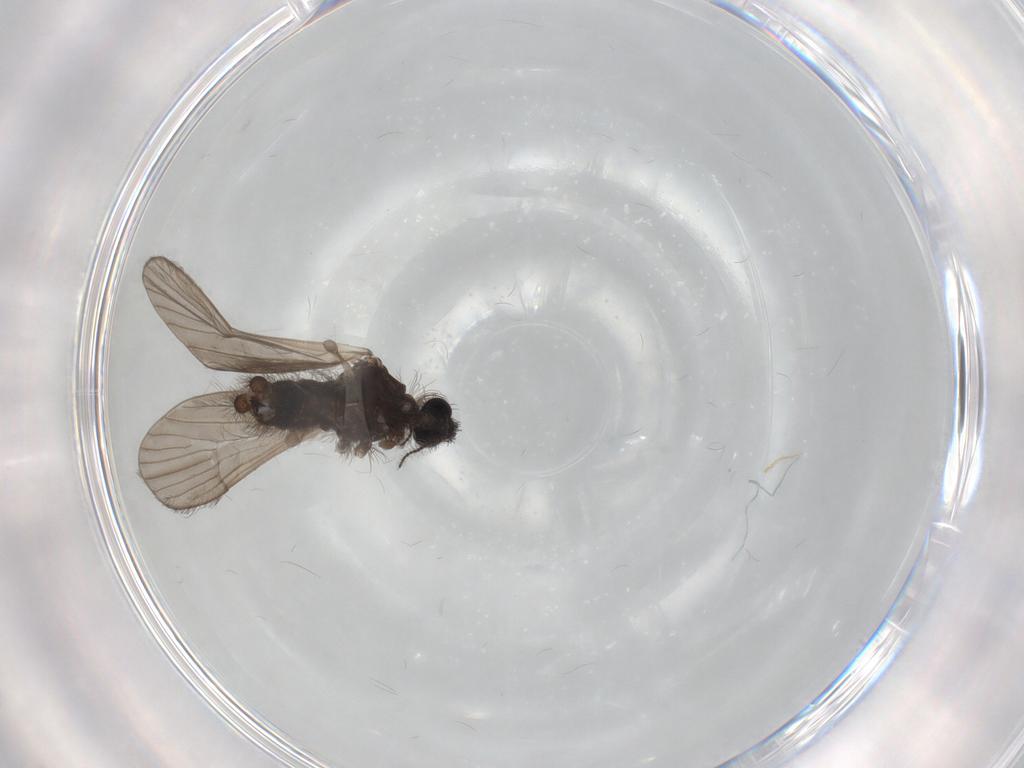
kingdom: Animalia
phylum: Arthropoda
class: Insecta
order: Diptera
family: Limoniidae
